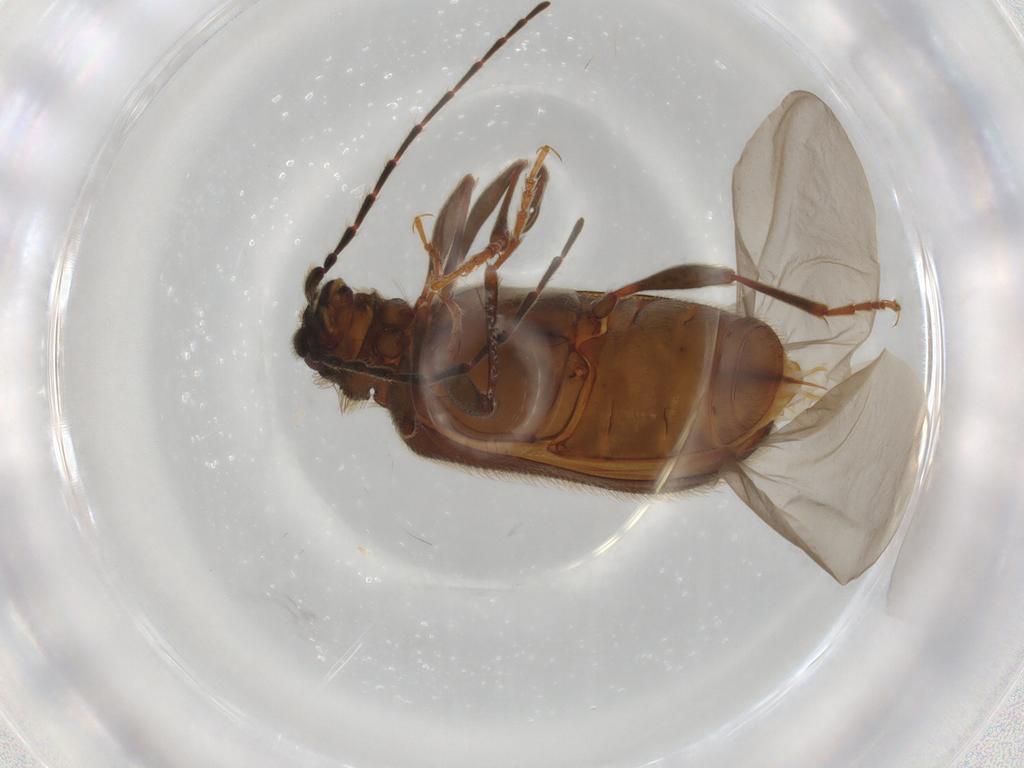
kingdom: Animalia
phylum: Arthropoda
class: Insecta
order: Coleoptera
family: Ptinidae
